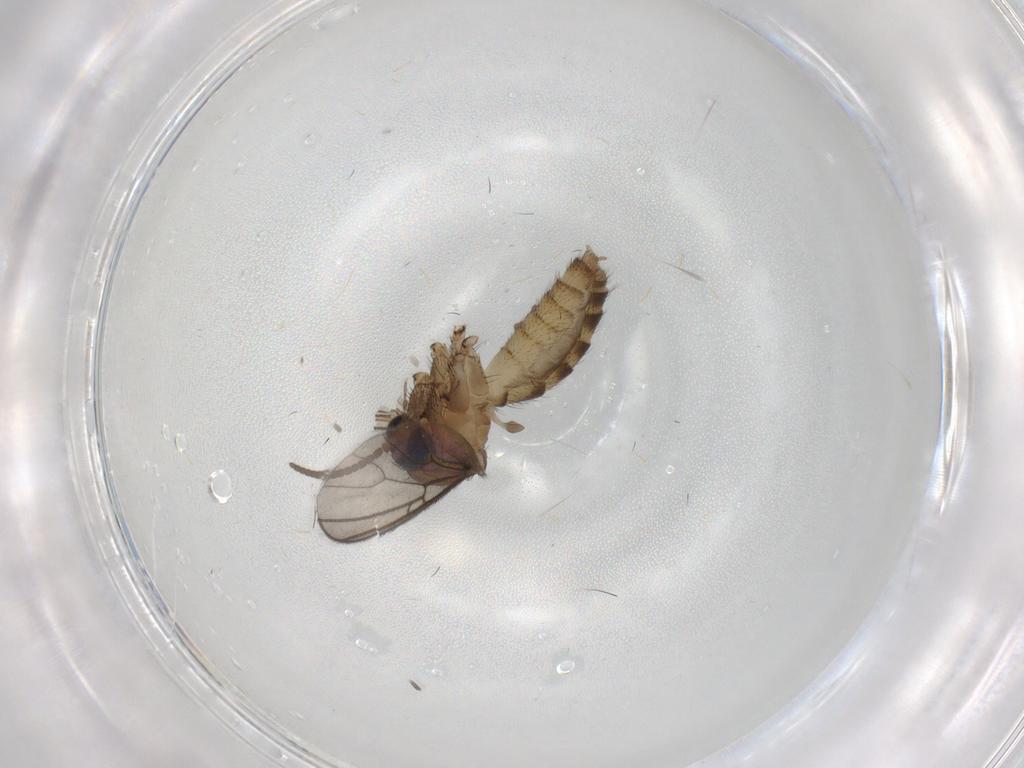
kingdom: Animalia
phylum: Arthropoda
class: Insecta
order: Diptera
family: Mycetophilidae
